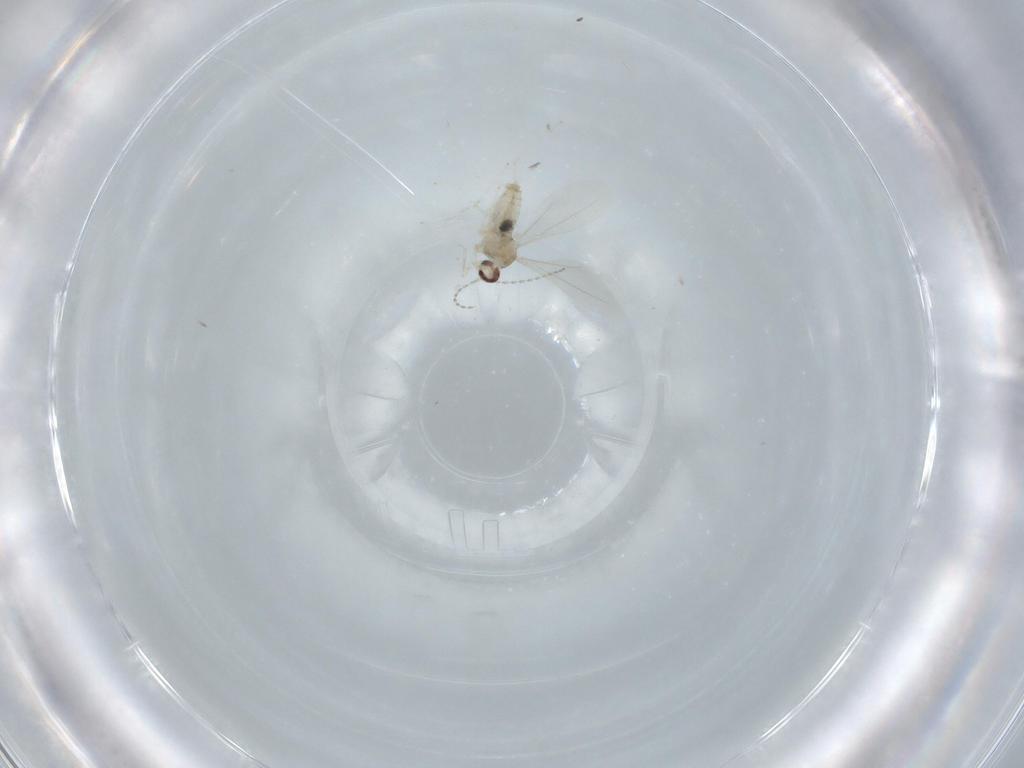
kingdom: Animalia
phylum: Arthropoda
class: Insecta
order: Diptera
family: Cecidomyiidae
